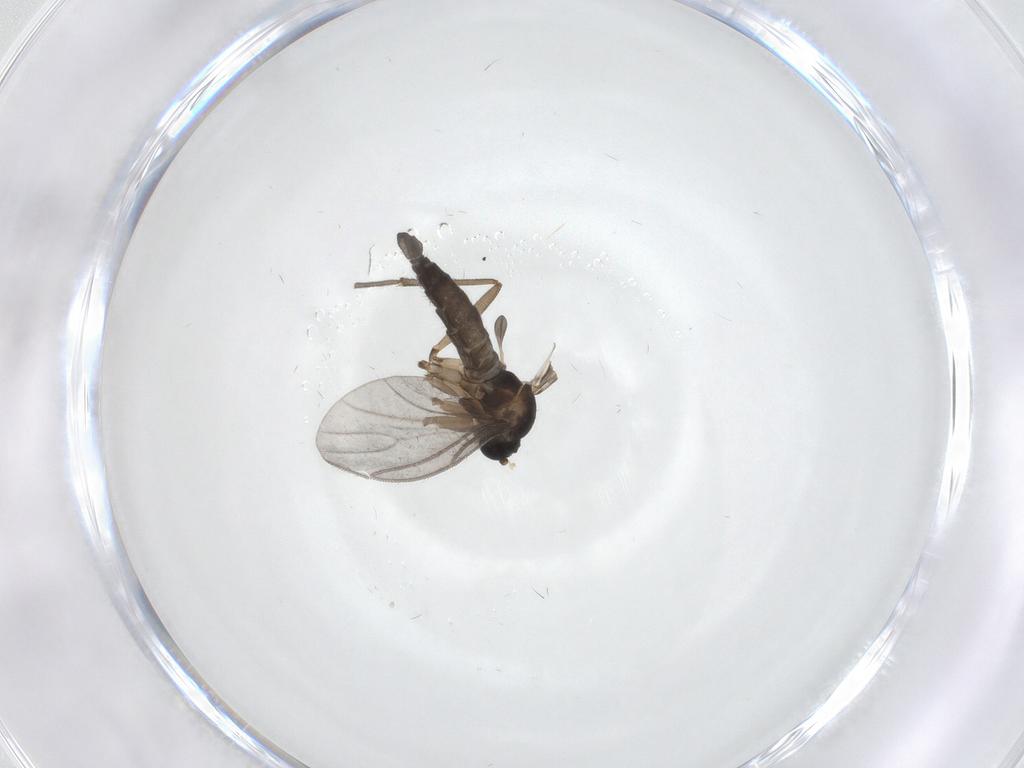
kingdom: Animalia
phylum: Arthropoda
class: Insecta
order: Diptera
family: Sciaridae
